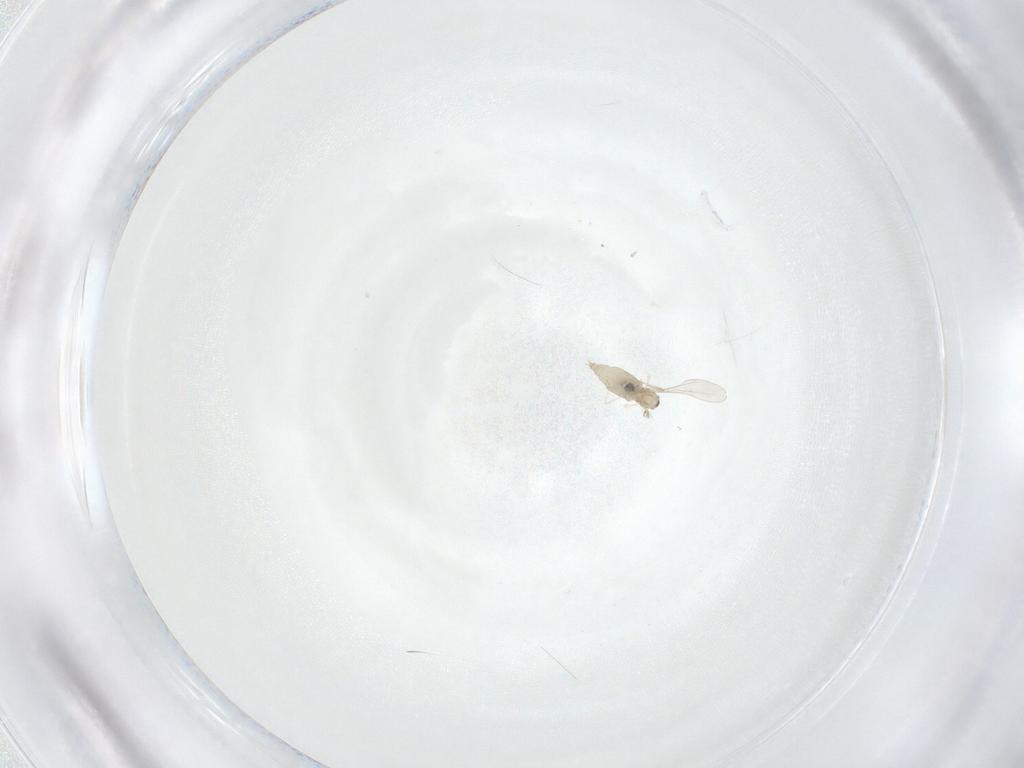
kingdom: Animalia
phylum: Arthropoda
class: Insecta
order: Diptera
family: Cecidomyiidae
